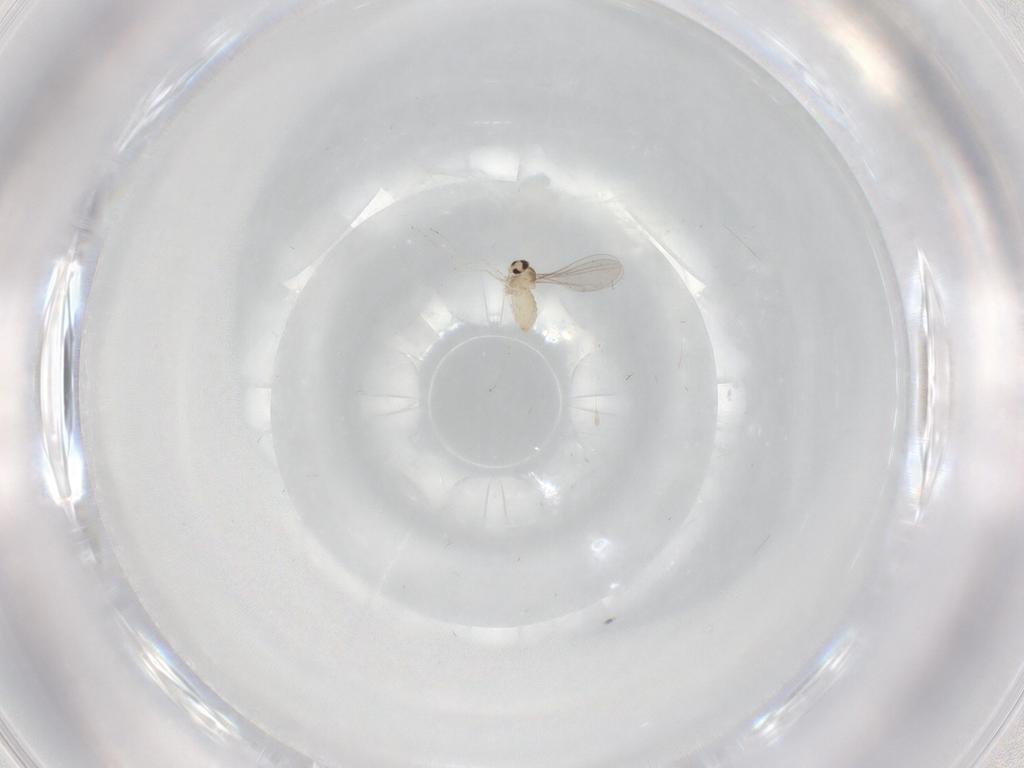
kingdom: Animalia
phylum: Arthropoda
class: Insecta
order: Diptera
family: Cecidomyiidae
